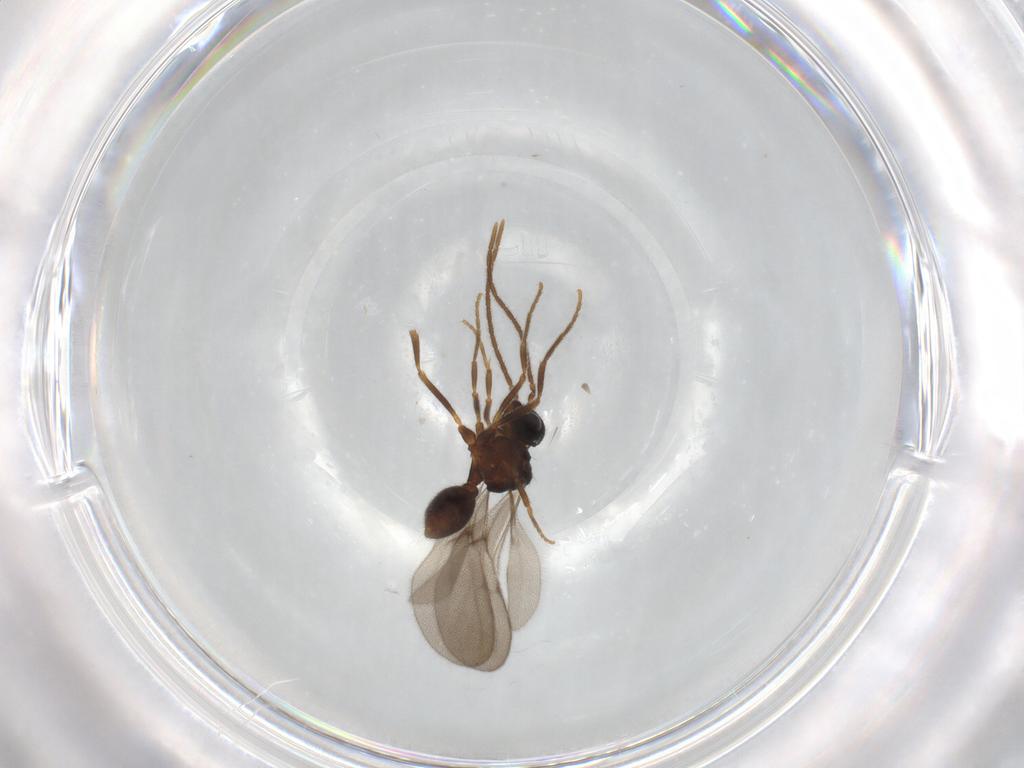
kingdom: Animalia
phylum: Arthropoda
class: Insecta
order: Hymenoptera
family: Formicidae
